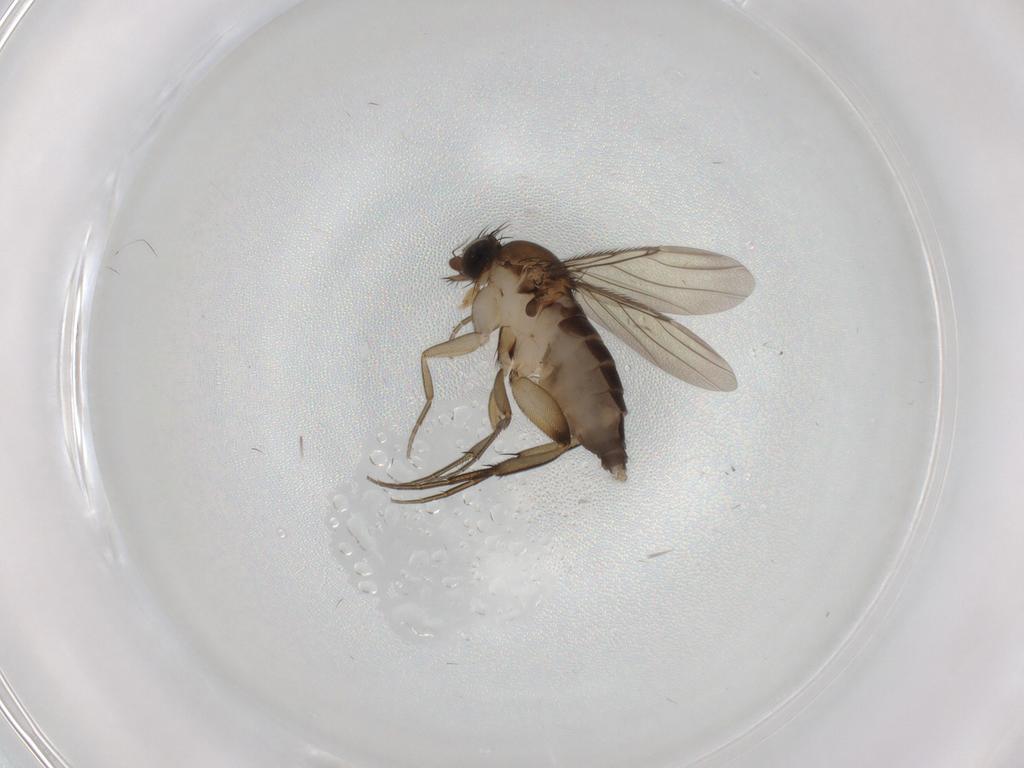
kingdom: Animalia
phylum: Arthropoda
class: Insecta
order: Diptera
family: Phoridae
